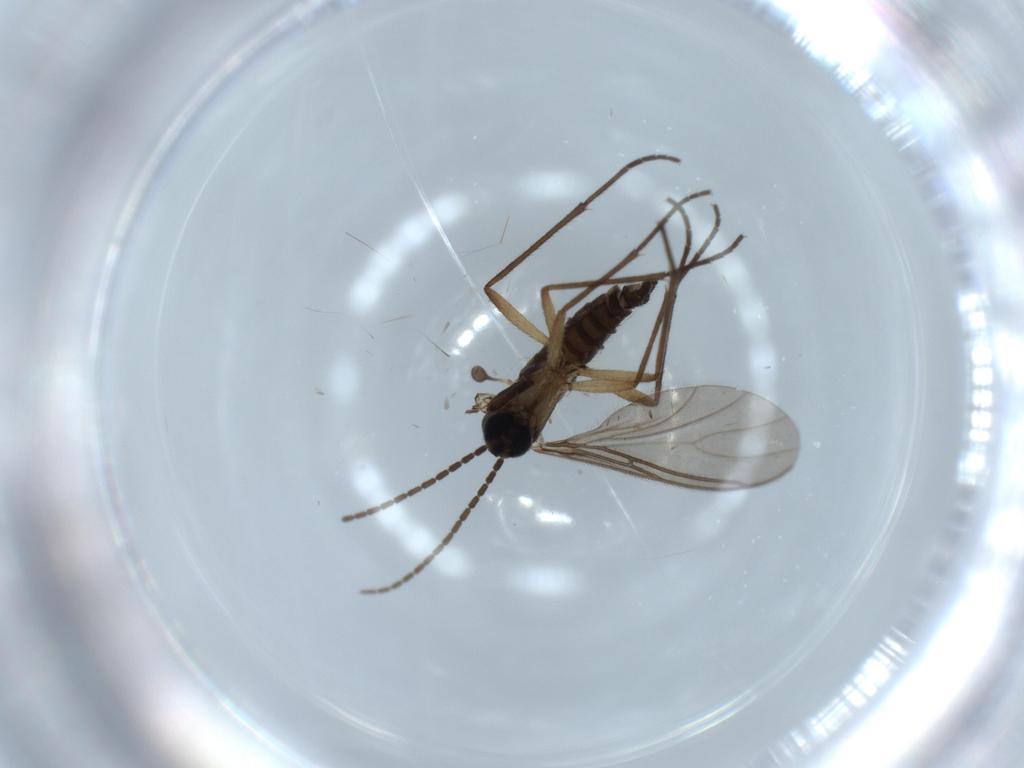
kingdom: Animalia
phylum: Arthropoda
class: Insecta
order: Diptera
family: Sciaridae
